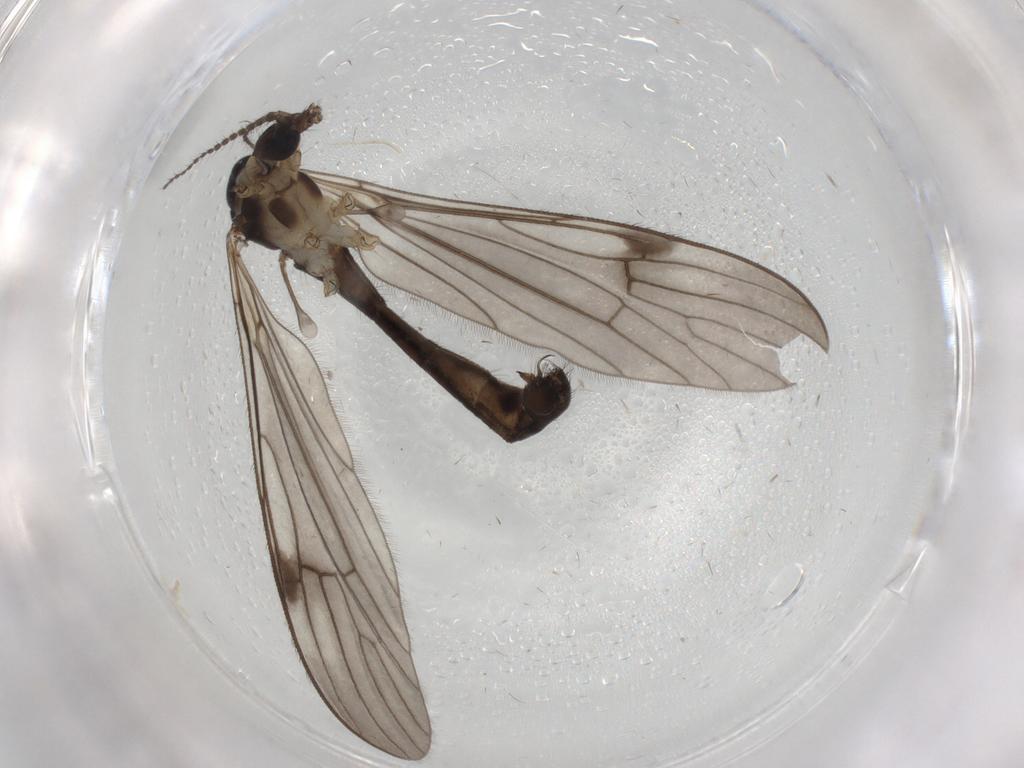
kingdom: Animalia
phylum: Arthropoda
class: Insecta
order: Diptera
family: Limoniidae
